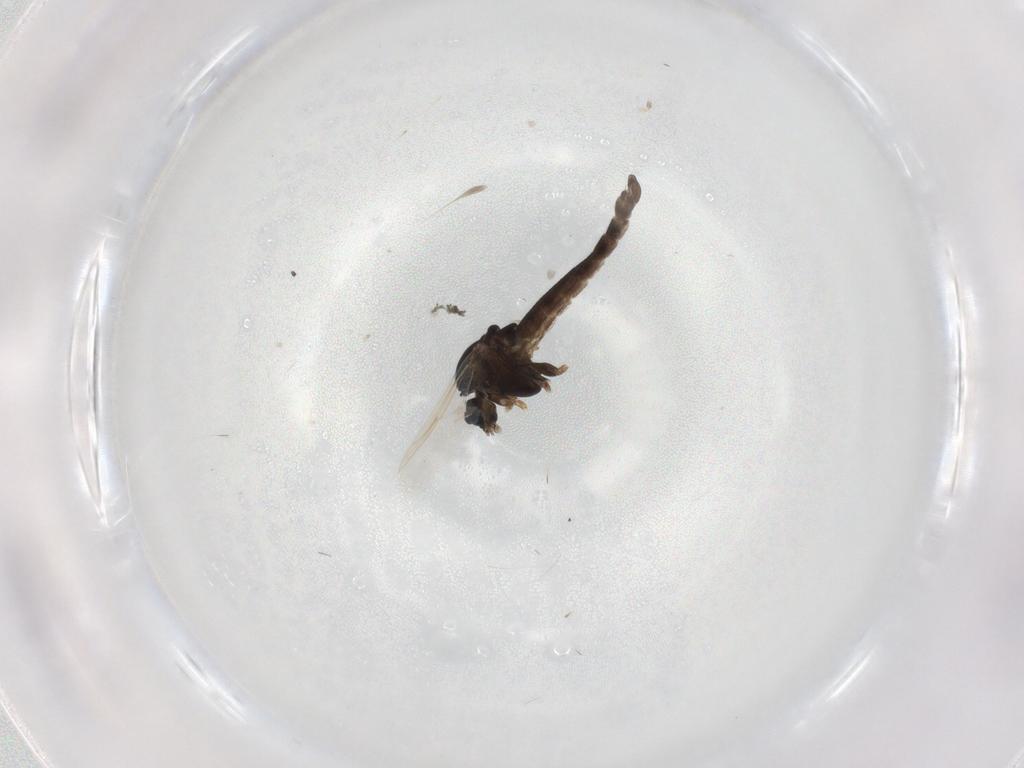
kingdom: Animalia
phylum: Arthropoda
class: Insecta
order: Diptera
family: Chironomidae
